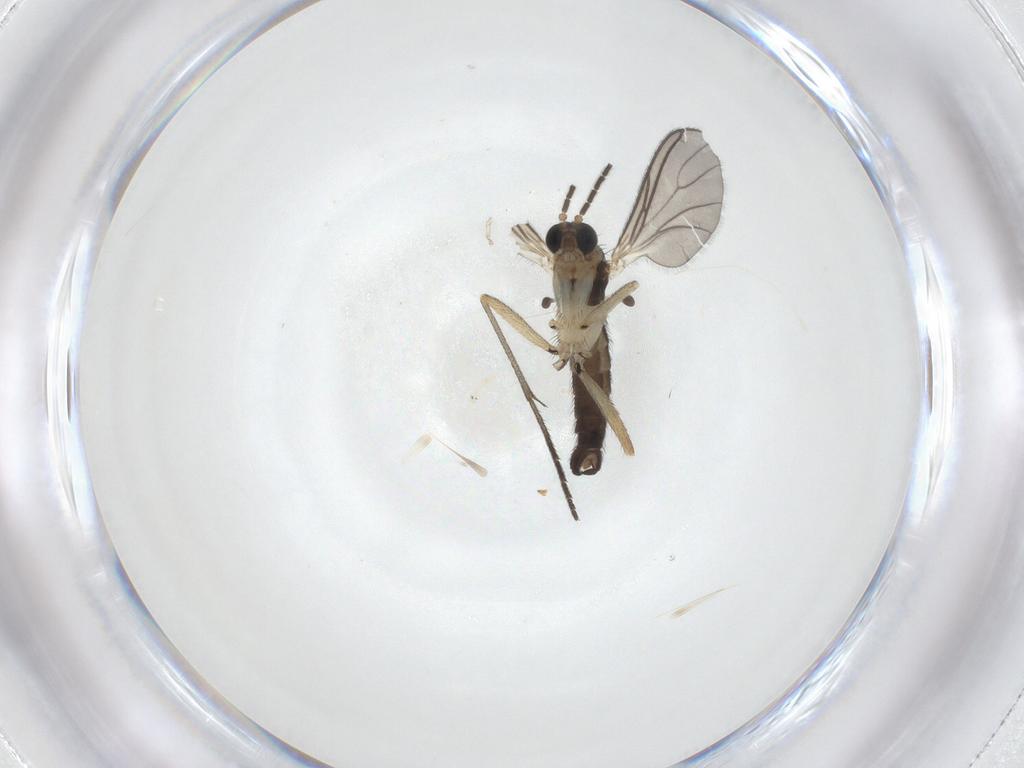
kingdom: Animalia
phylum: Arthropoda
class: Insecta
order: Diptera
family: Sciaridae
